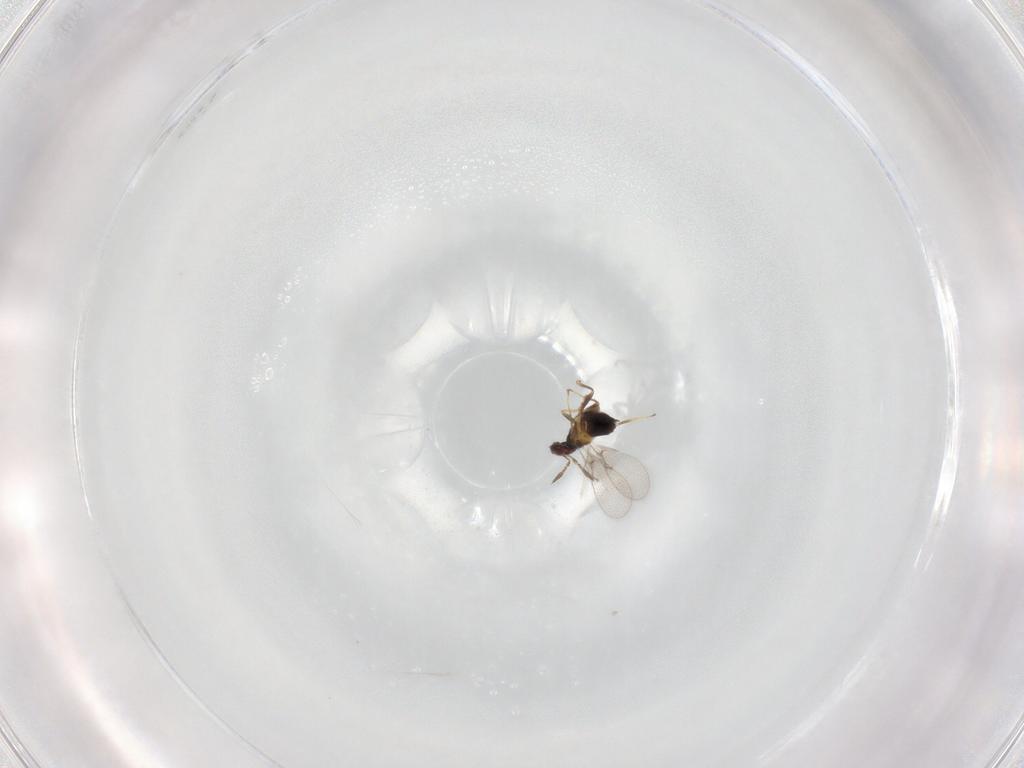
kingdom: Animalia
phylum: Arthropoda
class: Insecta
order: Hymenoptera
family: Trichogrammatidae
